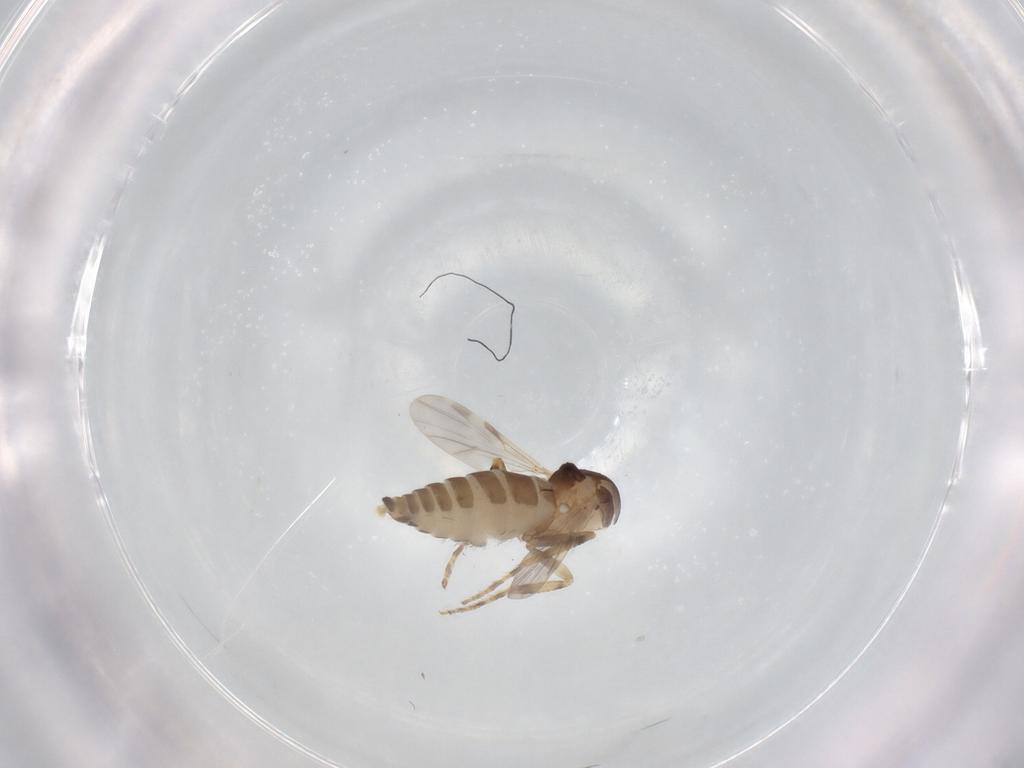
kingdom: Animalia
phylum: Arthropoda
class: Insecta
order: Diptera
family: Ceratopogonidae
